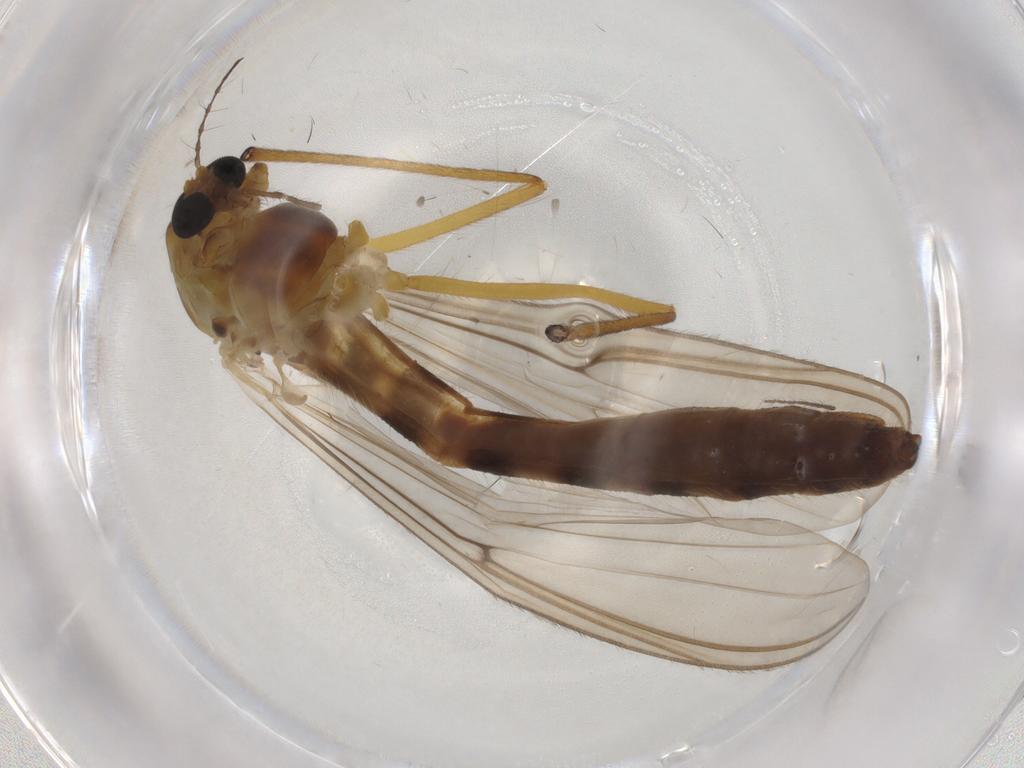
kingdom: Animalia
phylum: Arthropoda
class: Insecta
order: Diptera
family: Chironomidae
